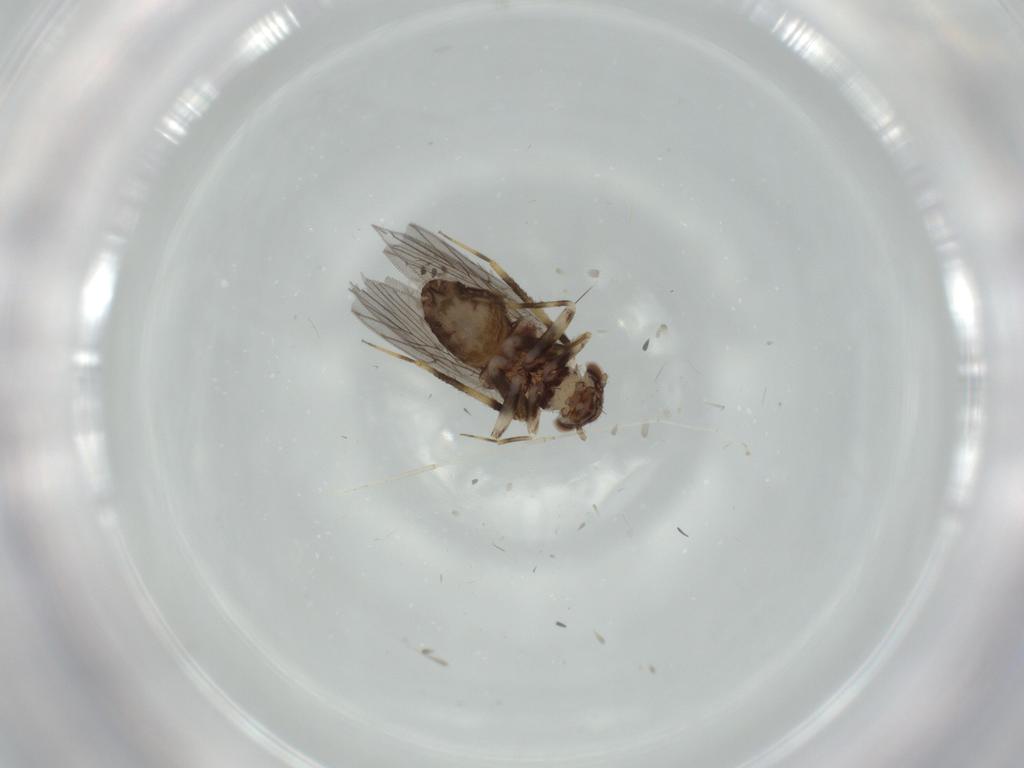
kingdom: Animalia
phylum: Arthropoda
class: Insecta
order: Psocodea
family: Lepidopsocidae
